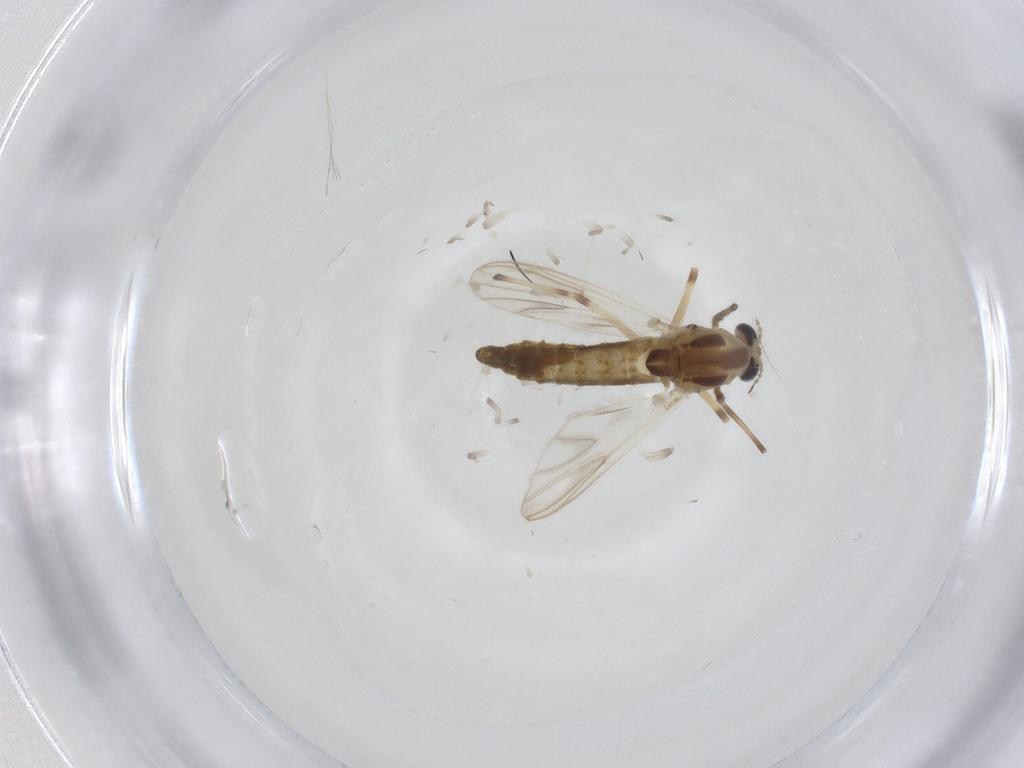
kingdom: Animalia
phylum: Arthropoda
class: Insecta
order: Diptera
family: Chironomidae
